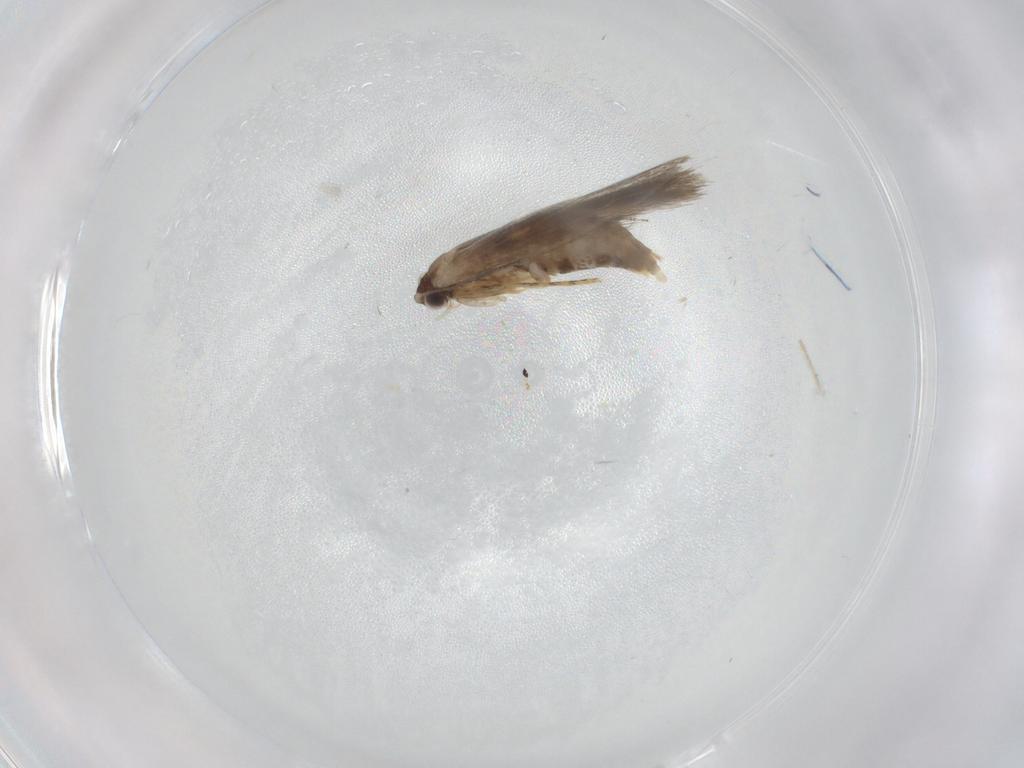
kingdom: Animalia
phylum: Arthropoda
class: Insecta
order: Lepidoptera
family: Tineidae
